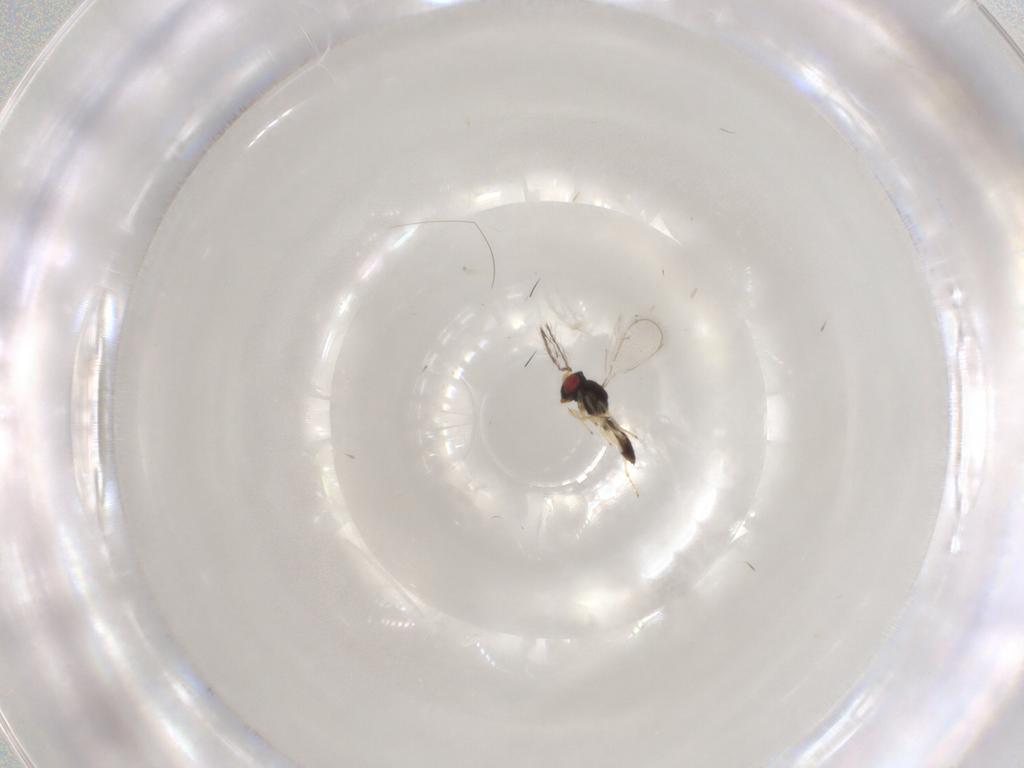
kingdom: Animalia
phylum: Arthropoda
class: Insecta
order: Hymenoptera
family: Eulophidae
